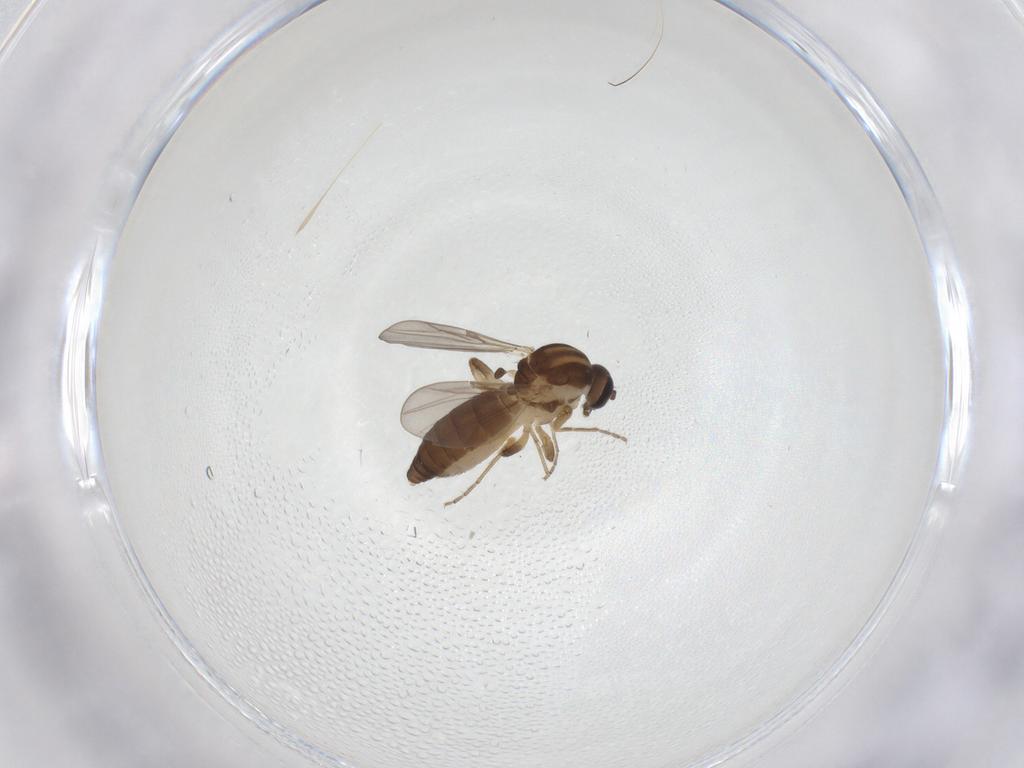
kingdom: Animalia
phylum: Arthropoda
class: Insecta
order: Diptera
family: Ceratopogonidae
